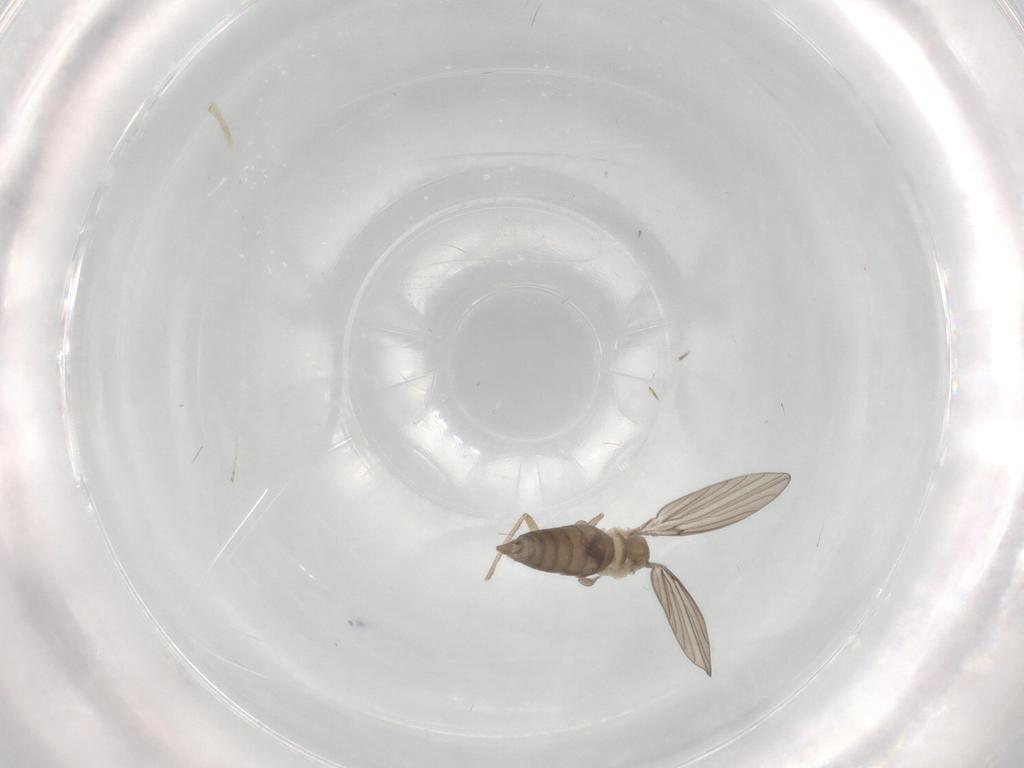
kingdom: Animalia
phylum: Arthropoda
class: Insecta
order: Diptera
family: Psychodidae
